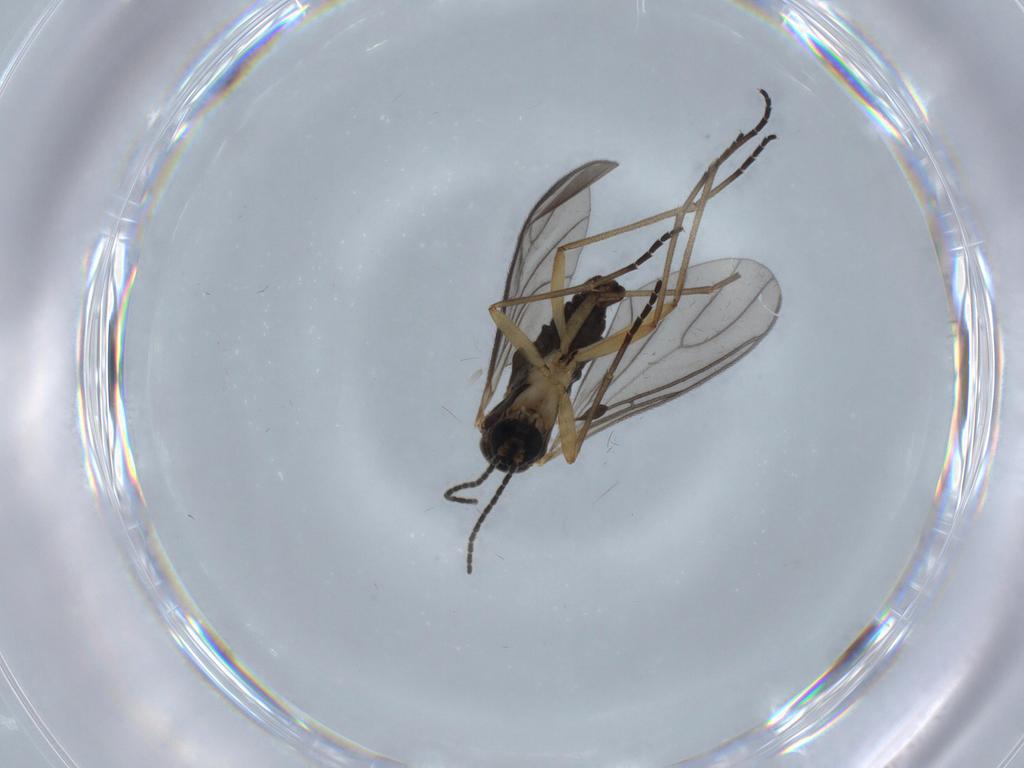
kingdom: Animalia
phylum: Arthropoda
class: Insecta
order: Diptera
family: Sciaridae
